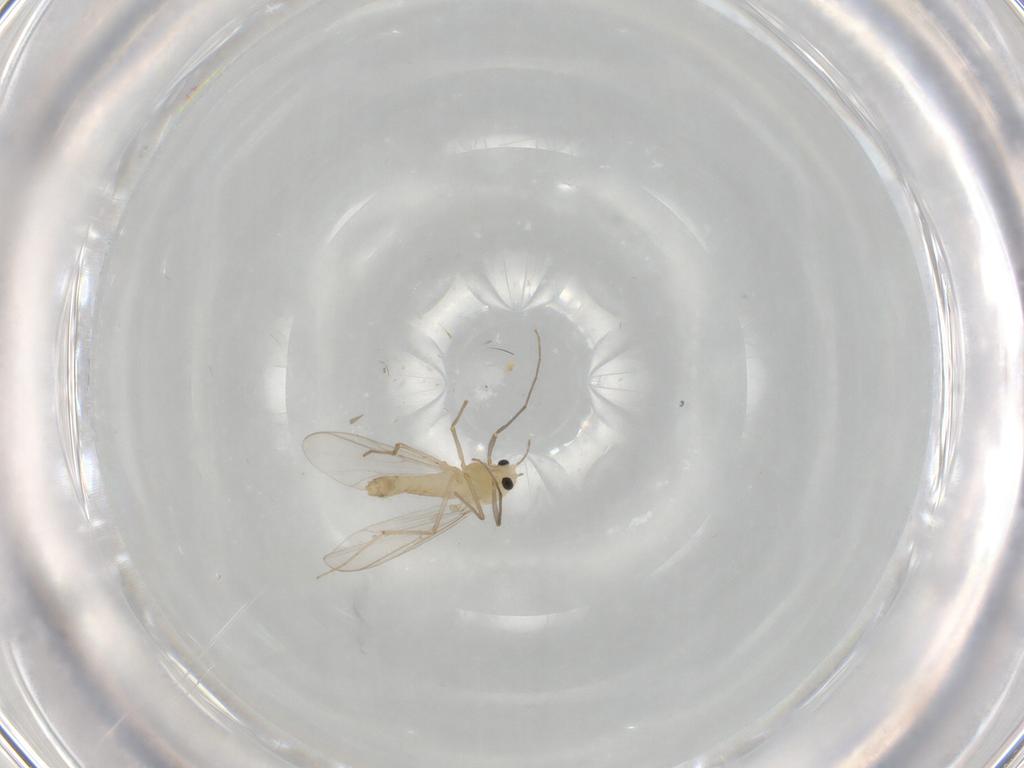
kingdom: Animalia
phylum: Arthropoda
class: Insecta
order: Diptera
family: Chironomidae
